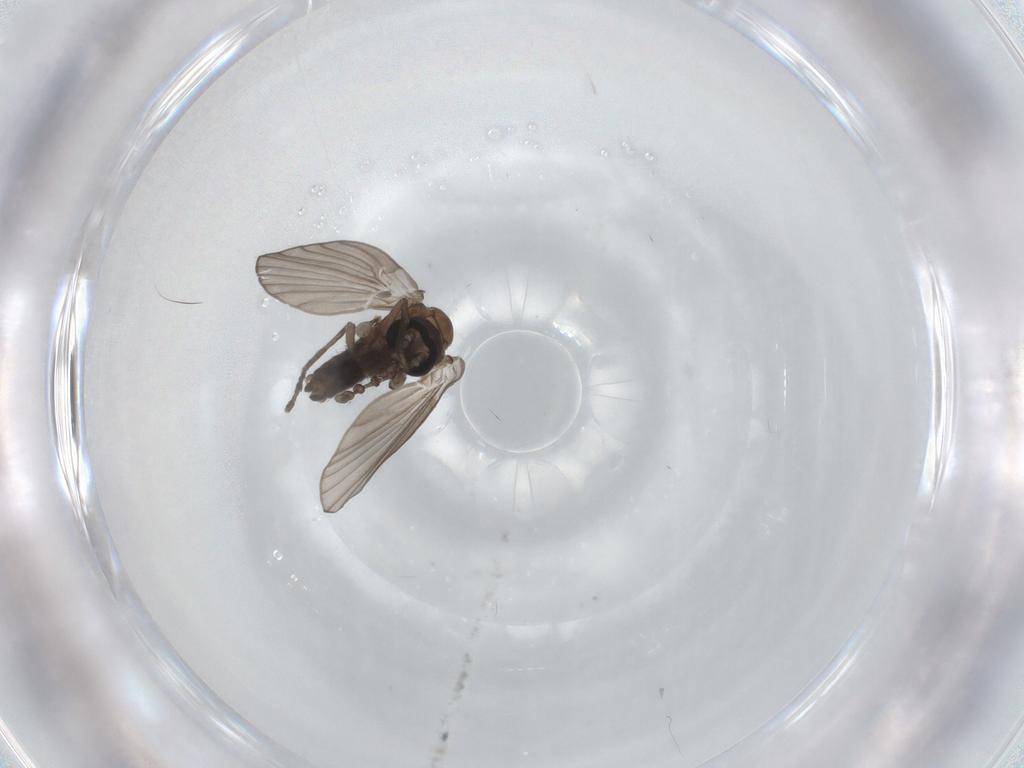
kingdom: Animalia
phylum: Arthropoda
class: Insecta
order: Diptera
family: Psychodidae
